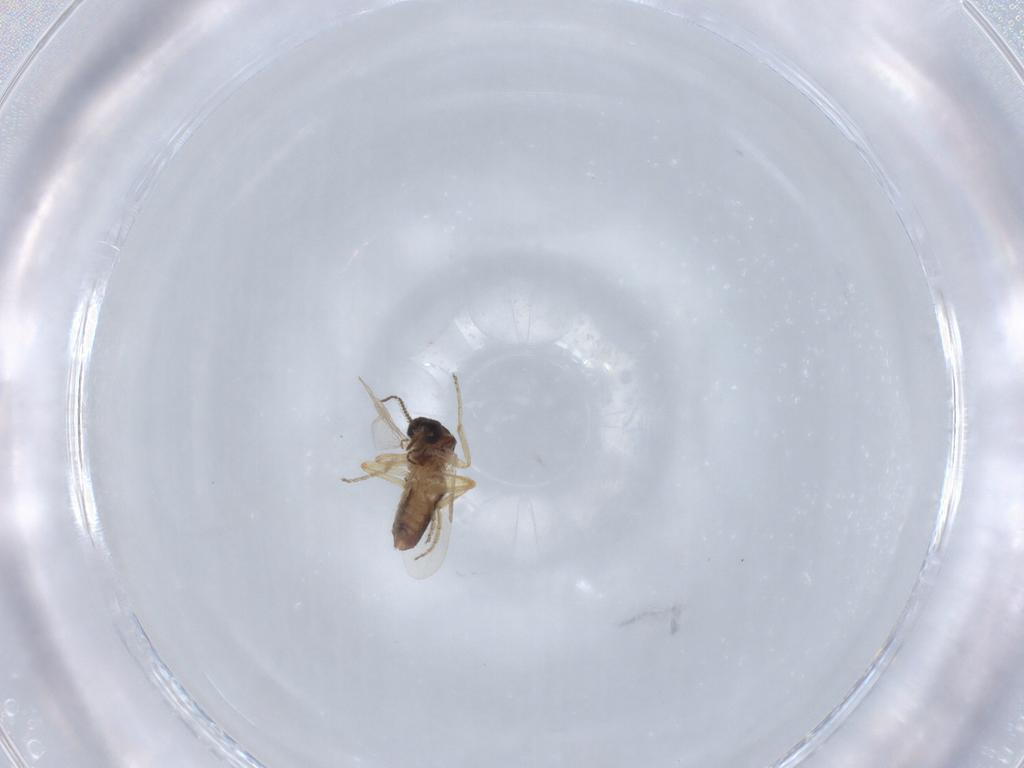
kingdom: Animalia
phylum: Arthropoda
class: Insecta
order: Diptera
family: Ceratopogonidae
